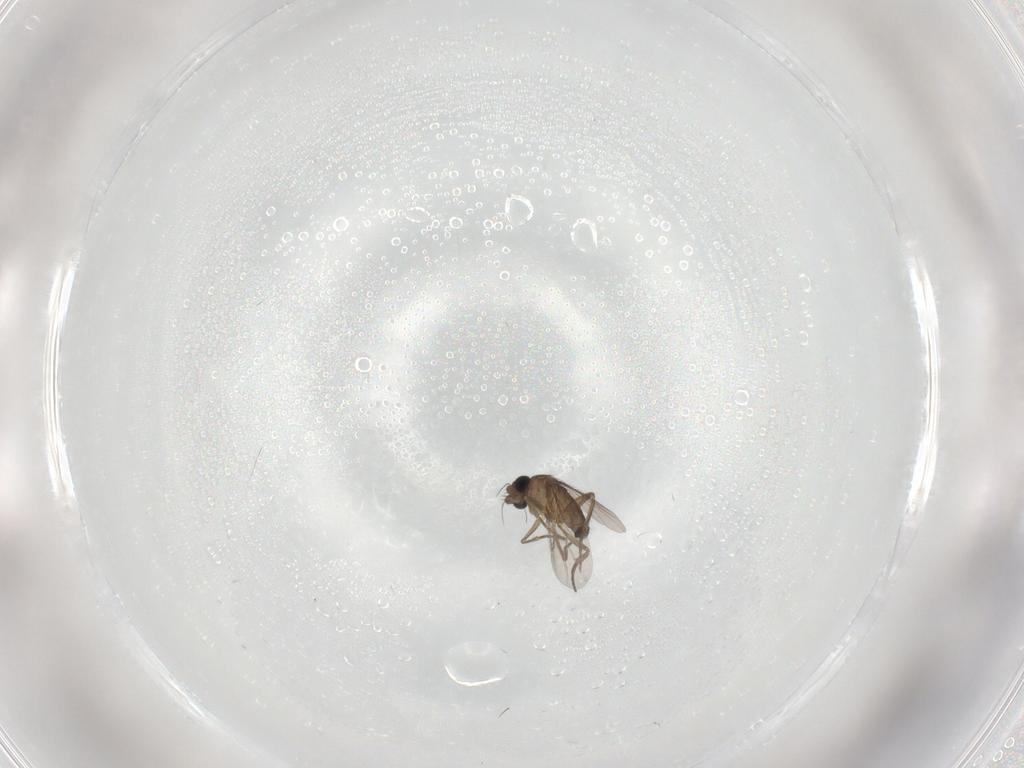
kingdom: Animalia
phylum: Arthropoda
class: Insecta
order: Diptera
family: Phoridae
